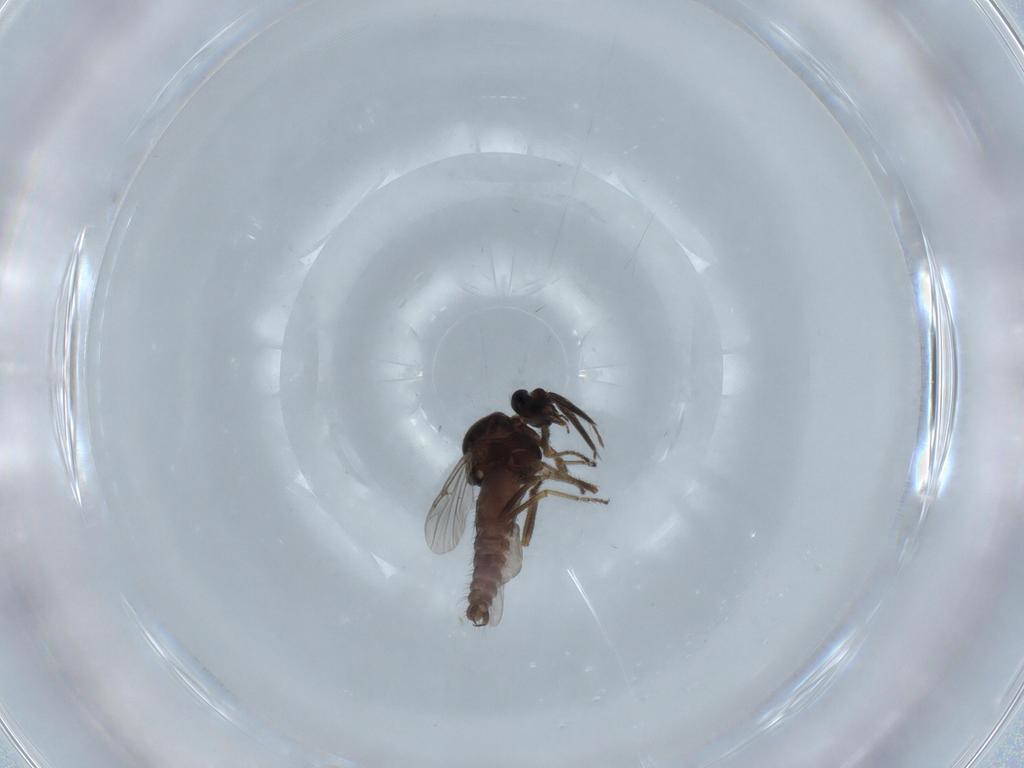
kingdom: Animalia
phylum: Arthropoda
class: Insecta
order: Diptera
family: Ceratopogonidae
